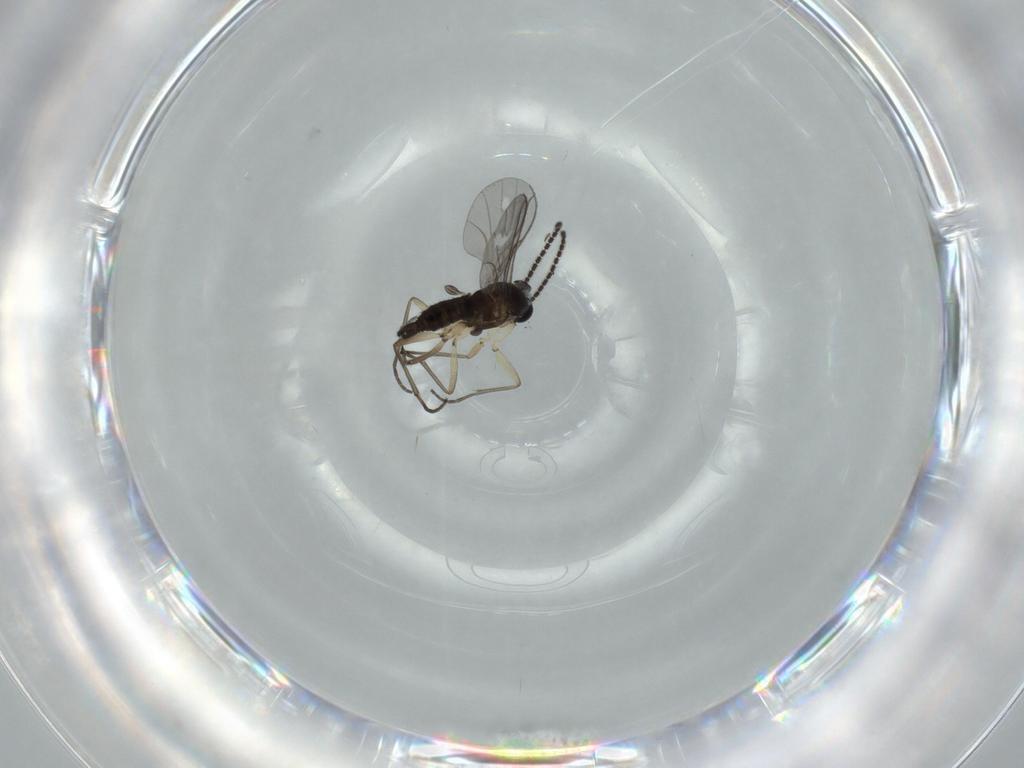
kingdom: Animalia
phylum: Arthropoda
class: Insecta
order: Diptera
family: Sciaridae
